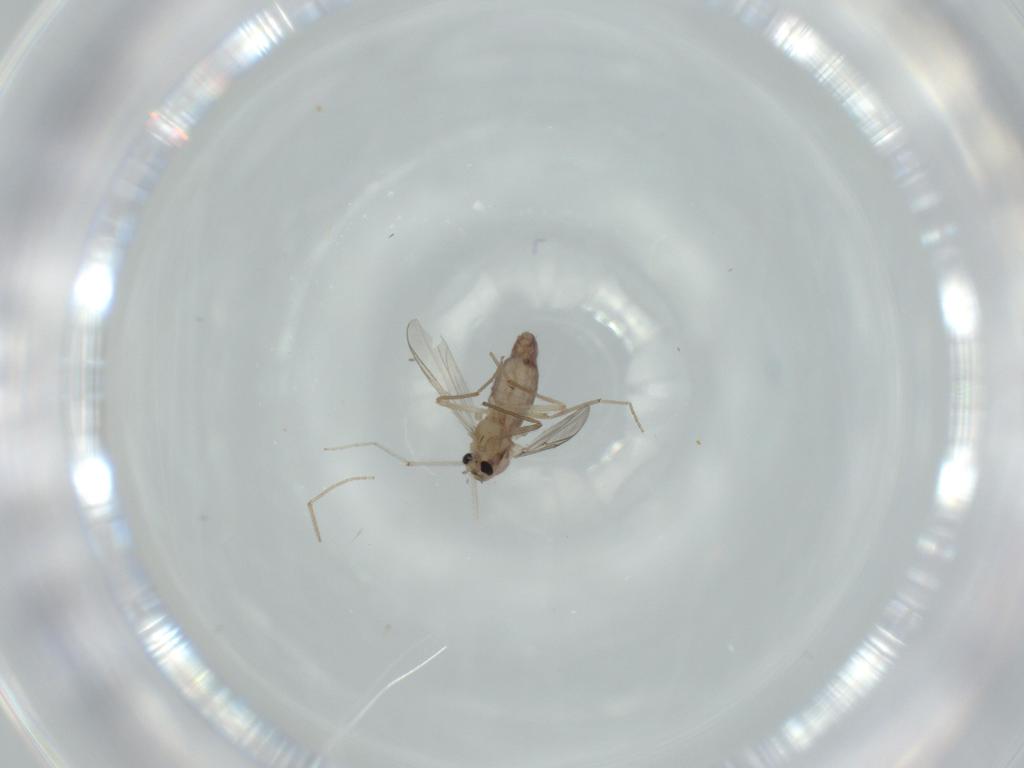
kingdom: Animalia
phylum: Arthropoda
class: Insecta
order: Diptera
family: Chironomidae
